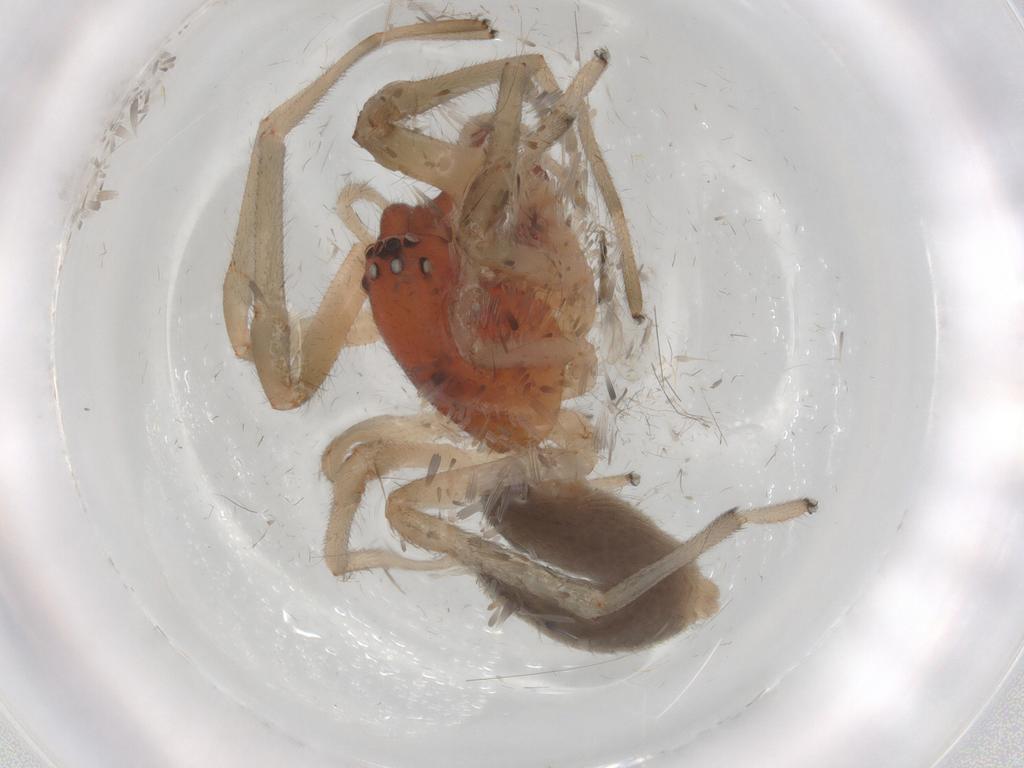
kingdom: Animalia
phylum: Arthropoda
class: Arachnida
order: Araneae
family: Trachelidae
